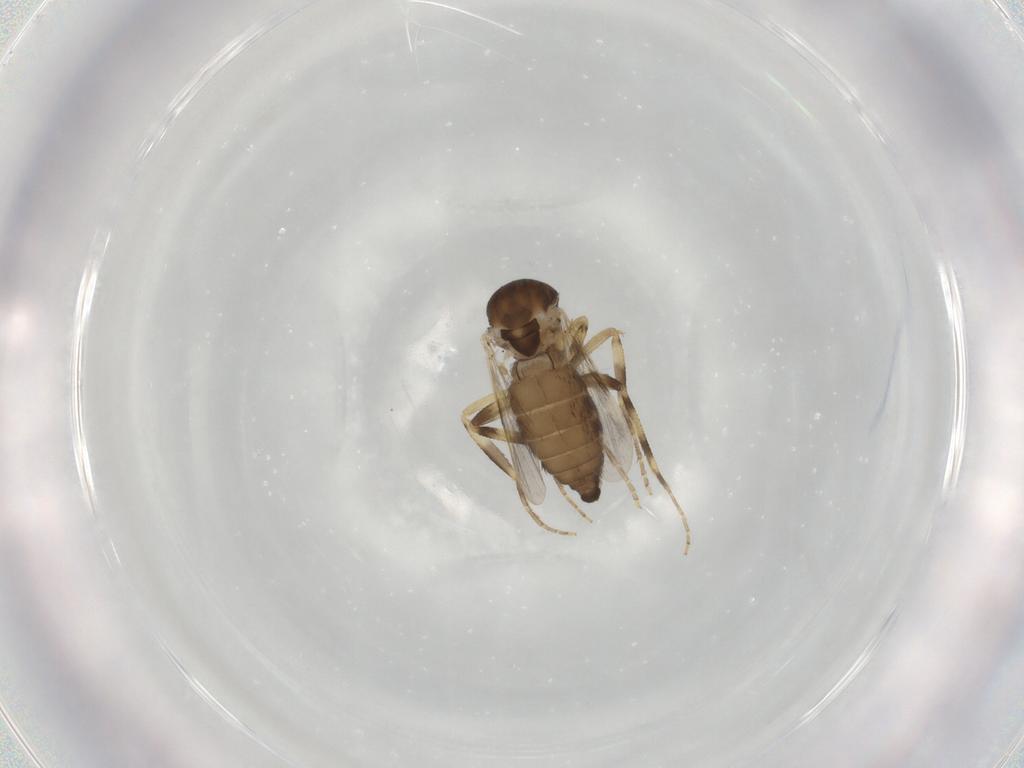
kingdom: Animalia
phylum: Arthropoda
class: Insecta
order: Diptera
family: Ceratopogonidae
